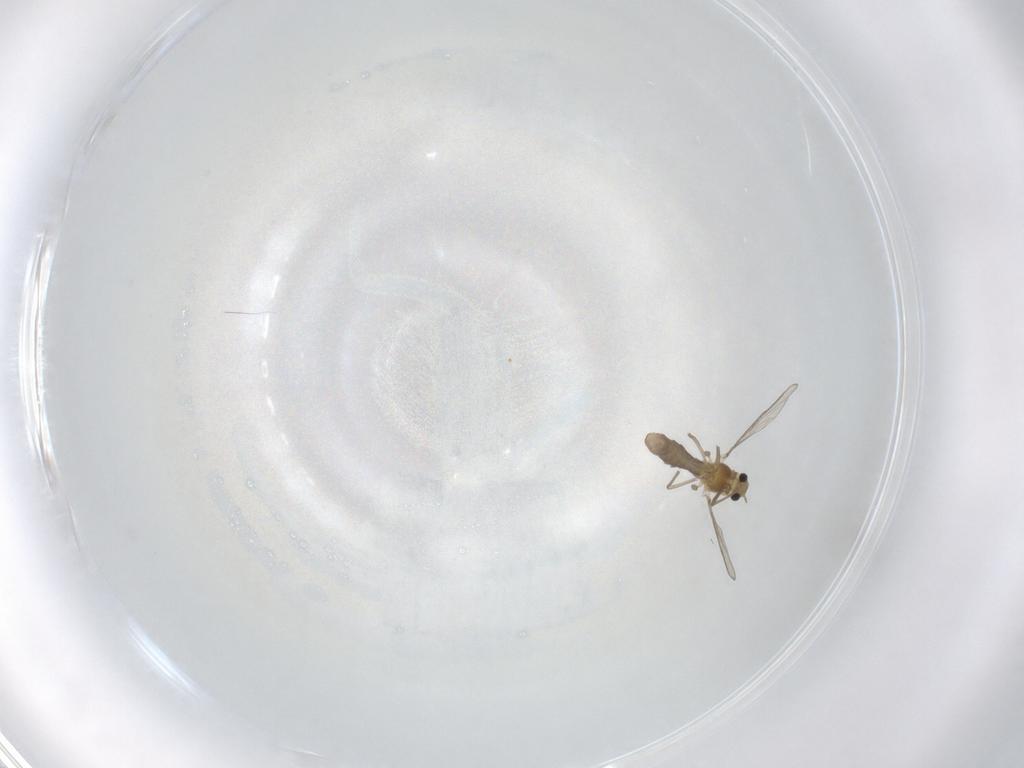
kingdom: Animalia
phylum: Arthropoda
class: Insecta
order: Diptera
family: Chironomidae
